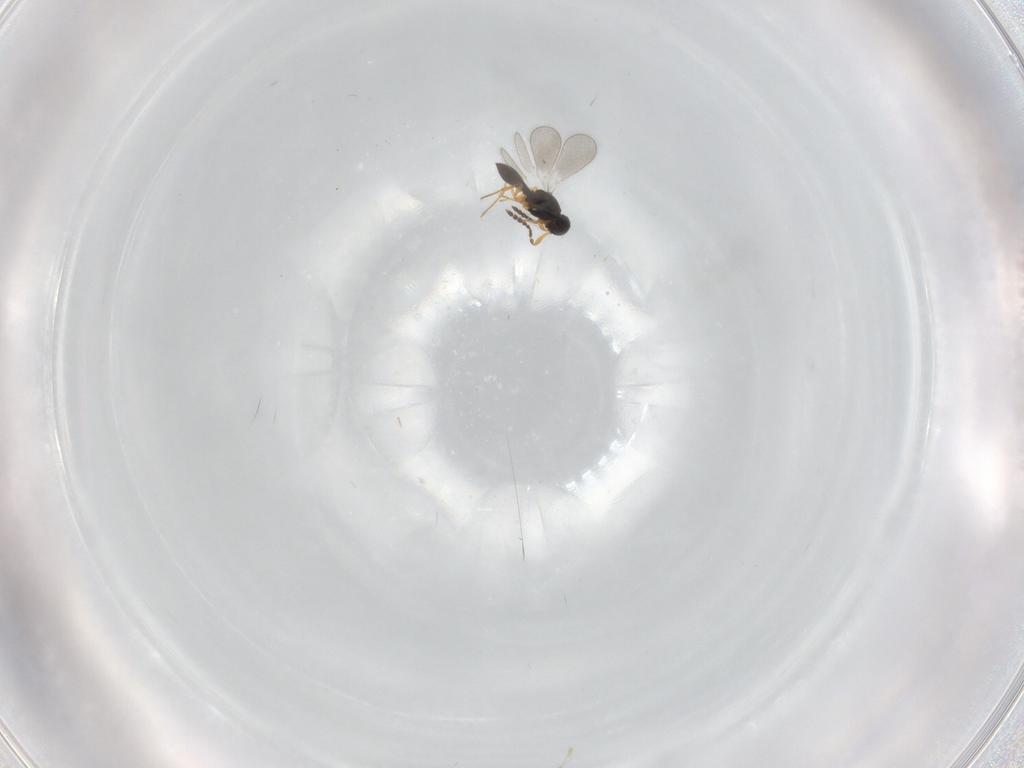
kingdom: Animalia
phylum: Arthropoda
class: Insecta
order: Hymenoptera
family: Platygastridae
